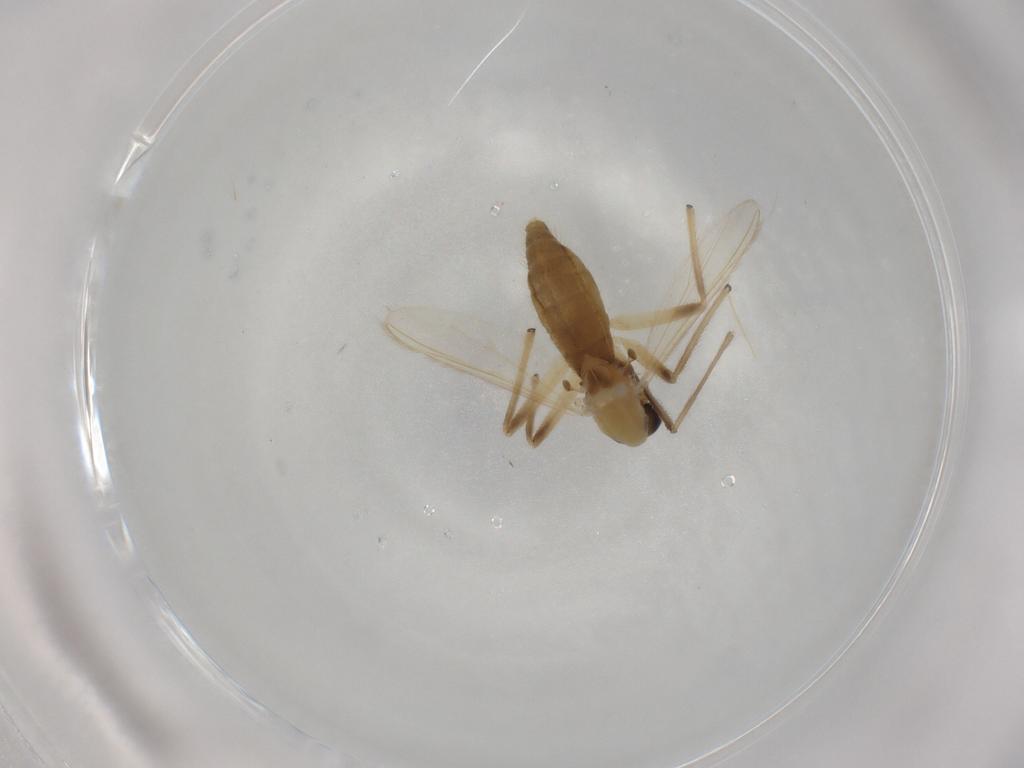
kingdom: Animalia
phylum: Arthropoda
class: Insecta
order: Diptera
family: Chironomidae
